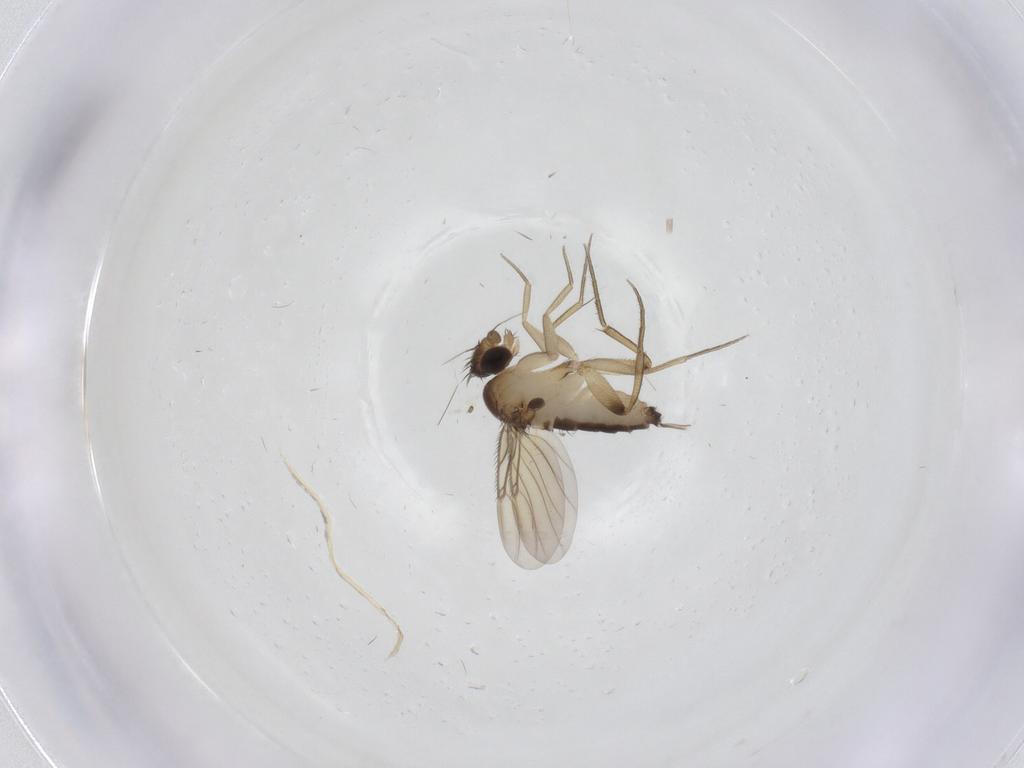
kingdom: Animalia
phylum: Arthropoda
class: Insecta
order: Diptera
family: Phoridae
